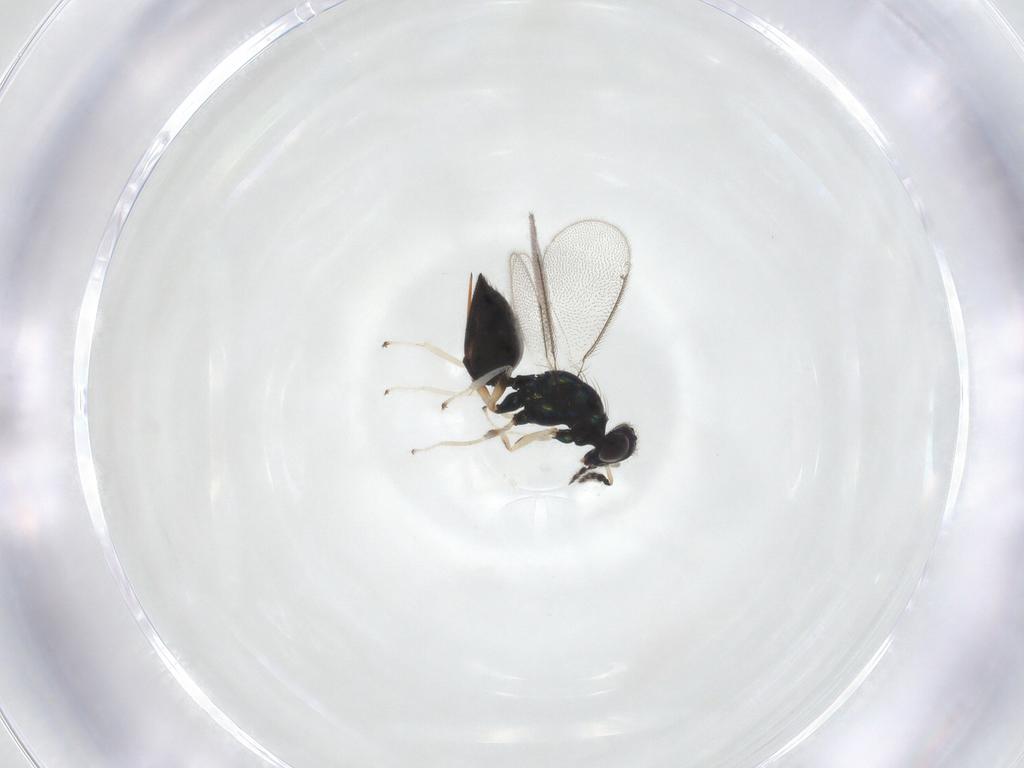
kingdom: Animalia
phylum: Arthropoda
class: Insecta
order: Hymenoptera
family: Eulophidae
